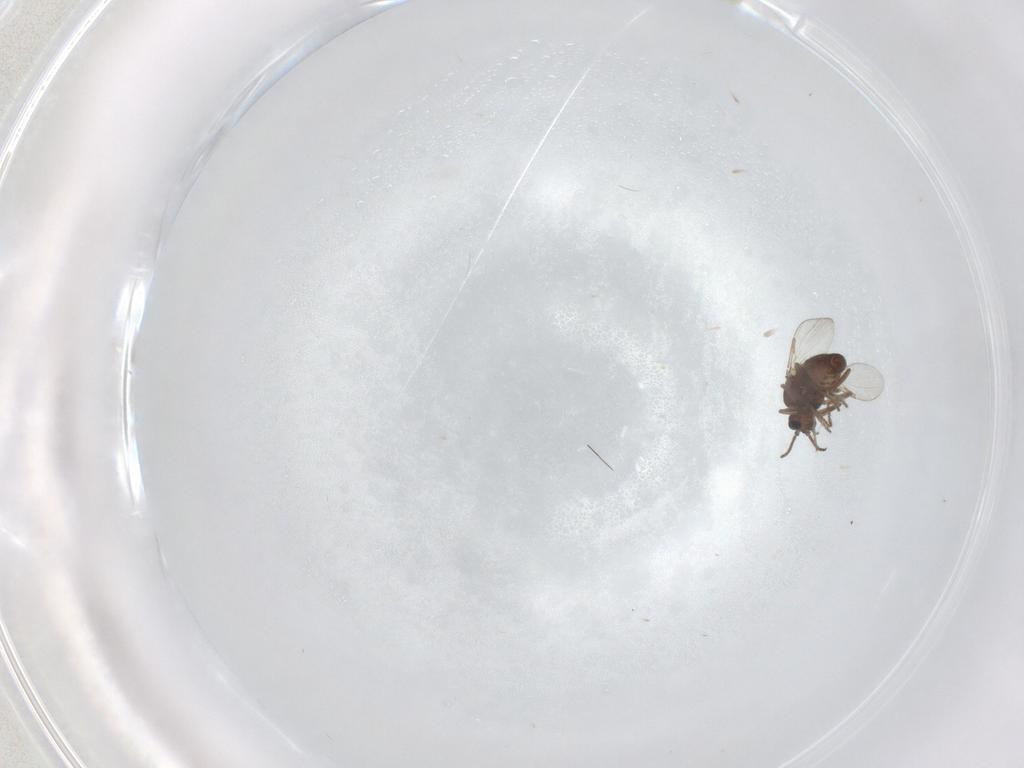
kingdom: Animalia
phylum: Arthropoda
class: Insecta
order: Diptera
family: Ceratopogonidae
